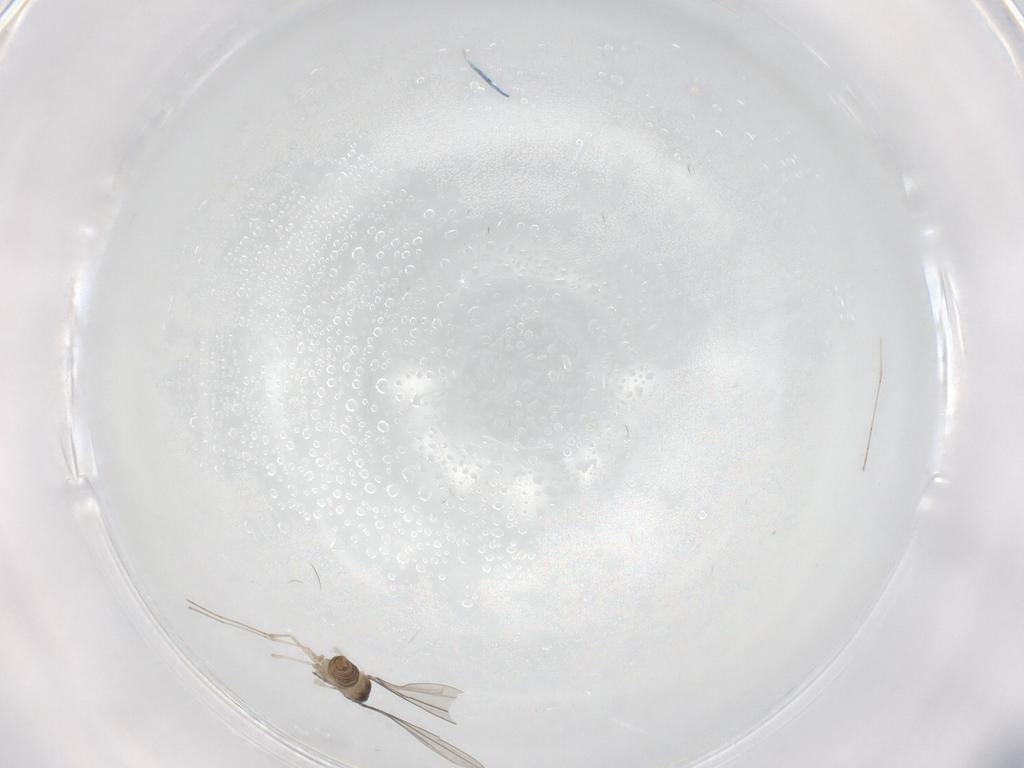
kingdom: Animalia
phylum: Arthropoda
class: Insecta
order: Diptera
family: Cecidomyiidae
